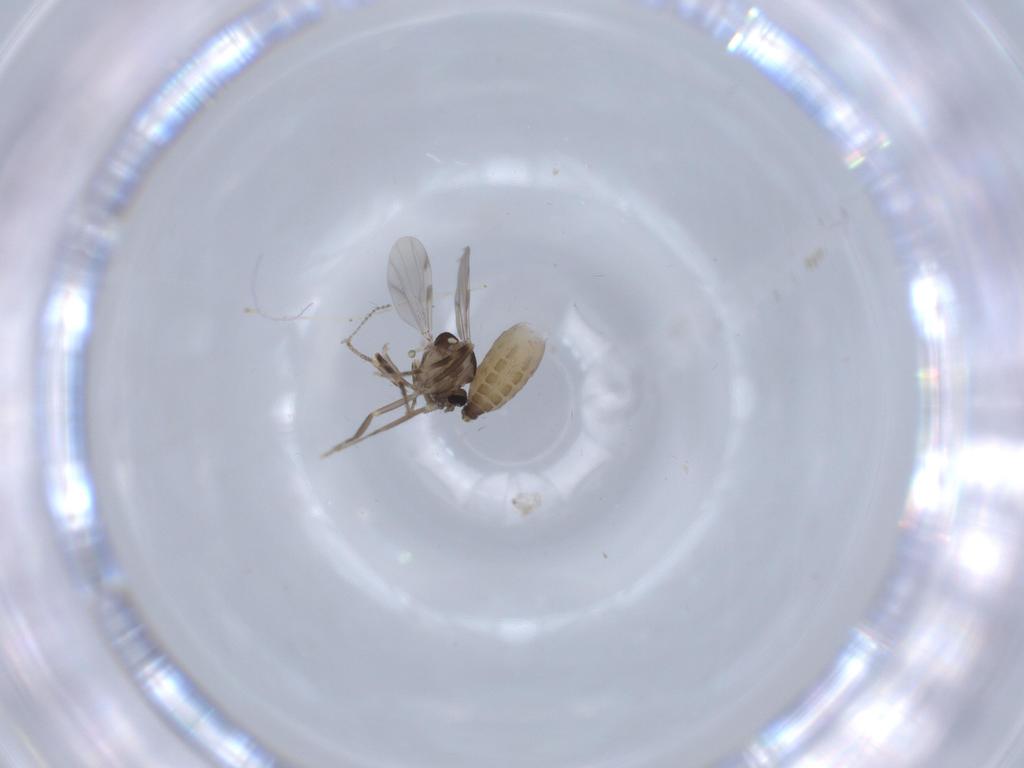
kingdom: Animalia
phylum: Arthropoda
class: Insecta
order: Diptera
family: Ceratopogonidae
